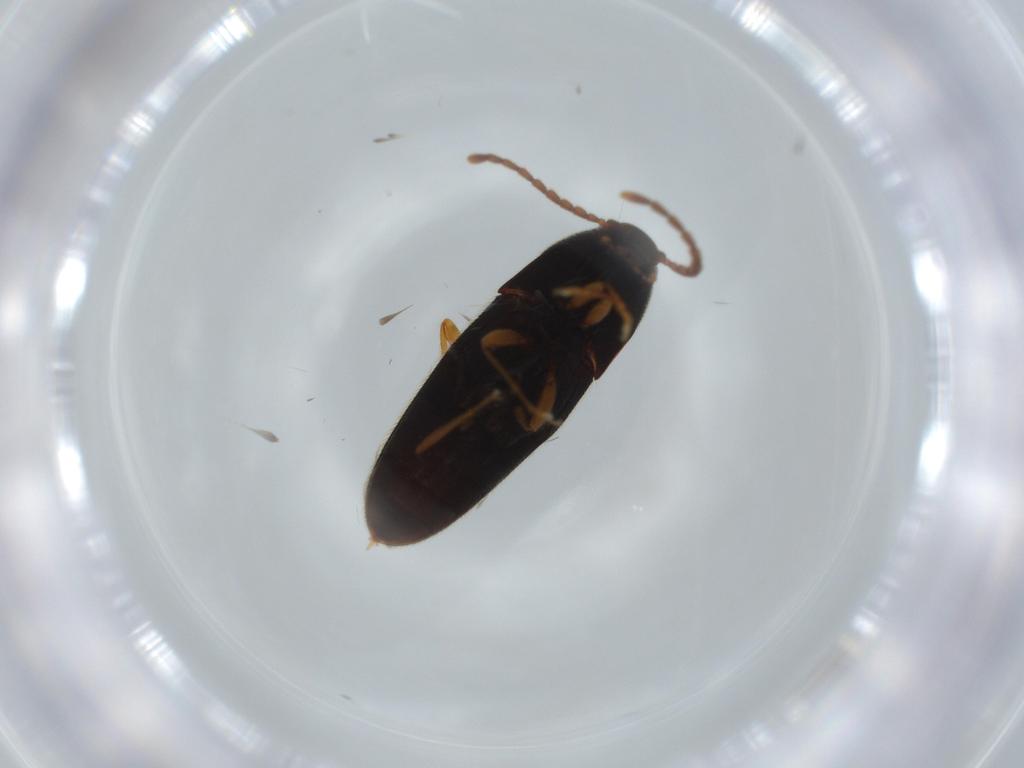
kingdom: Animalia
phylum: Arthropoda
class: Insecta
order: Coleoptera
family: Elateridae
